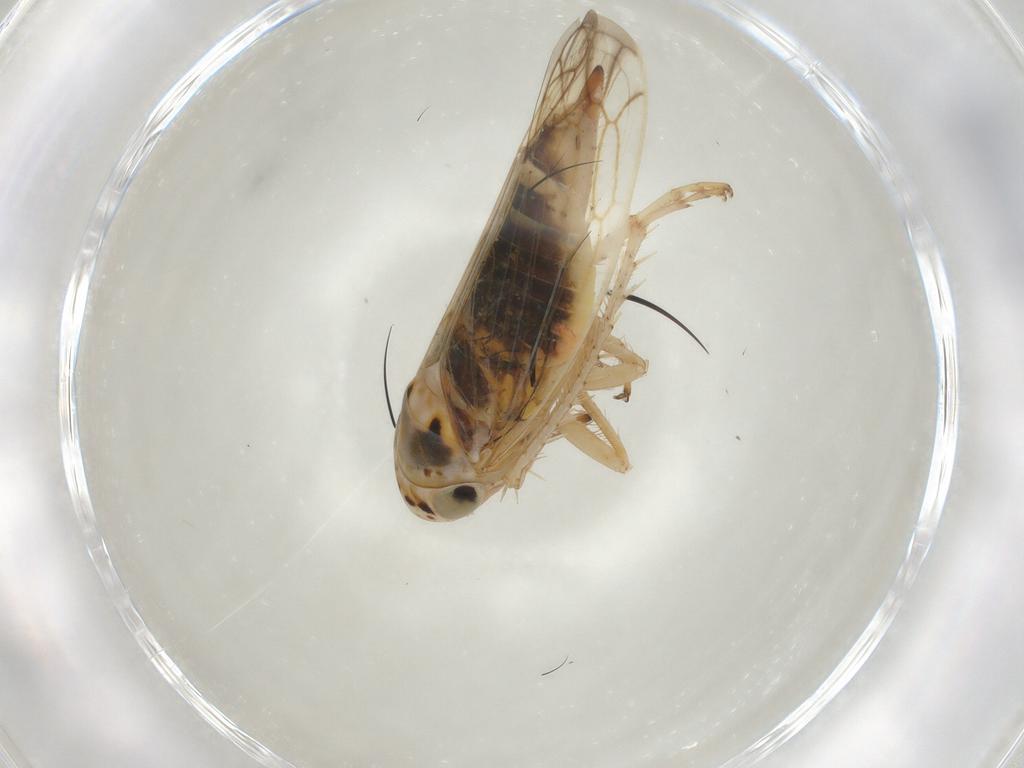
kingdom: Animalia
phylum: Arthropoda
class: Insecta
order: Hemiptera
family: Cicadellidae
